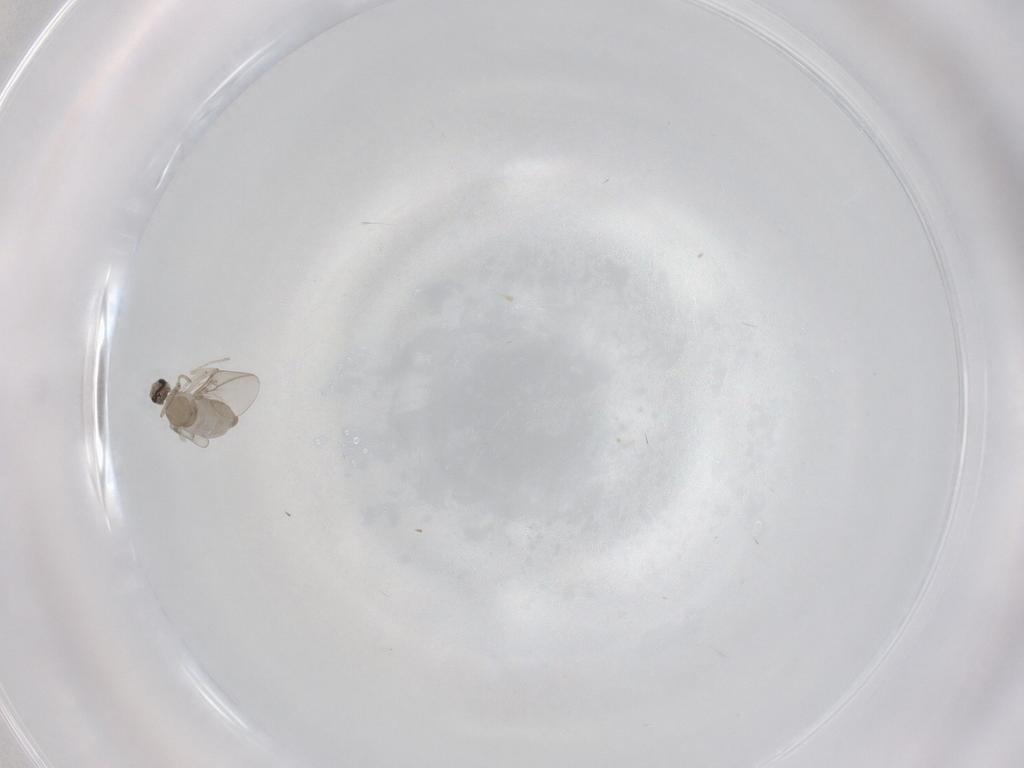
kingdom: Animalia
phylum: Arthropoda
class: Insecta
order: Diptera
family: Cecidomyiidae
